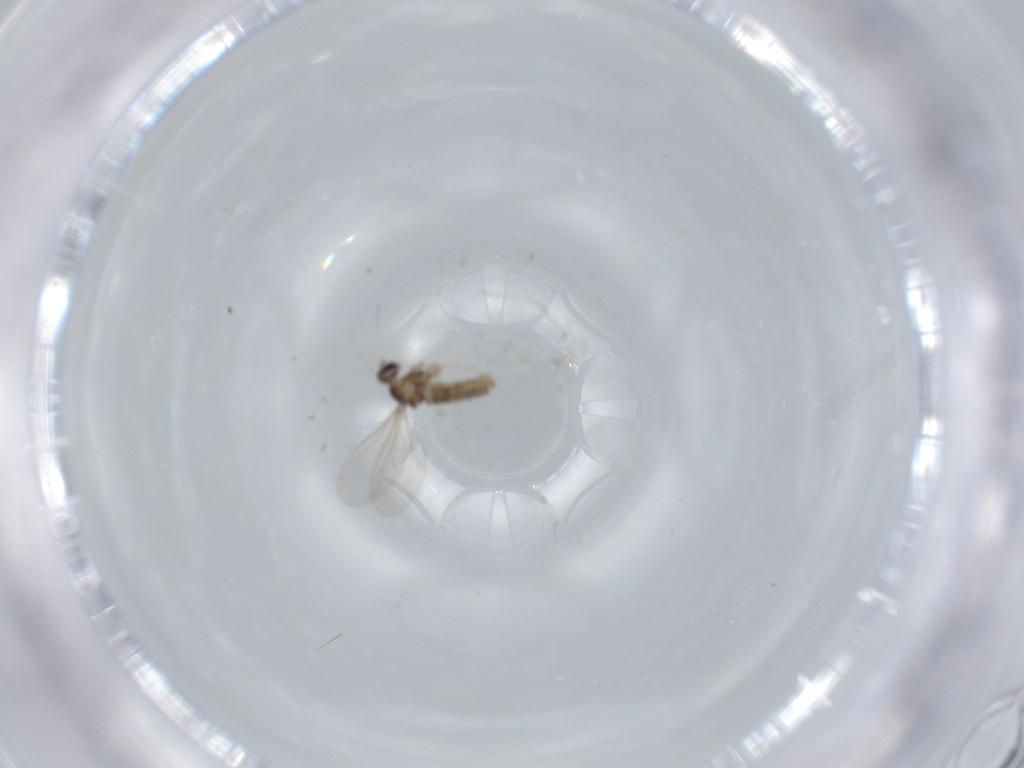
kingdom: Animalia
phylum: Arthropoda
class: Insecta
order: Diptera
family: Cecidomyiidae
